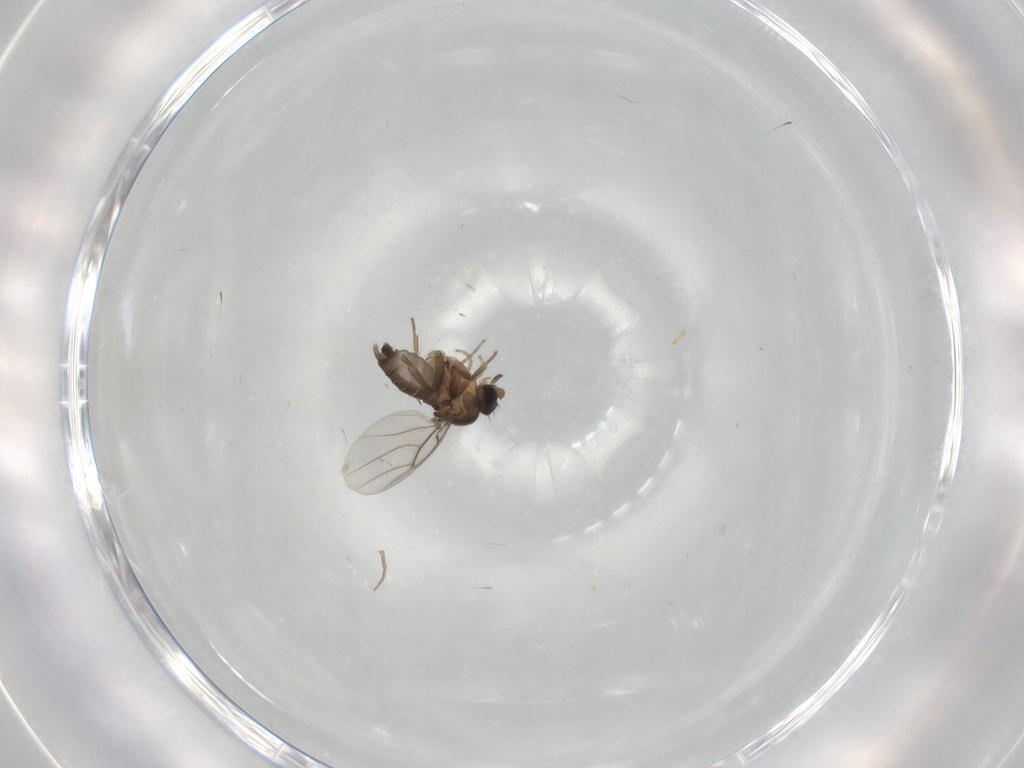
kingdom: Animalia
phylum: Arthropoda
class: Insecta
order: Diptera
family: Phoridae
